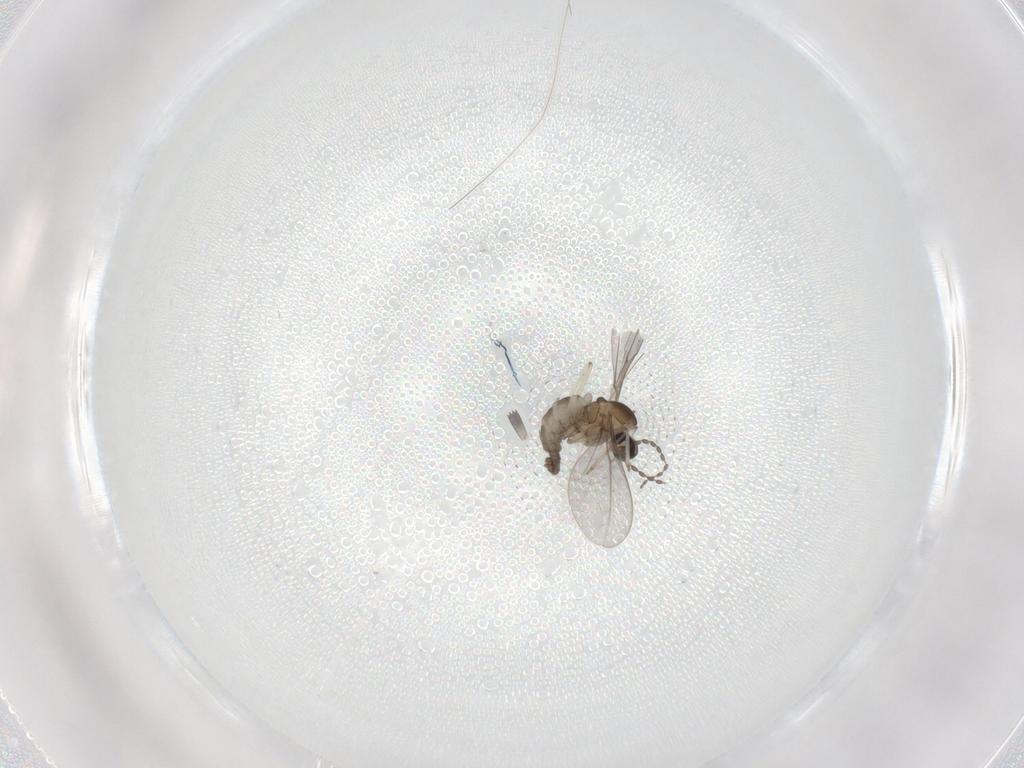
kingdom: Animalia
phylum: Arthropoda
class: Insecta
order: Diptera
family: Cecidomyiidae
